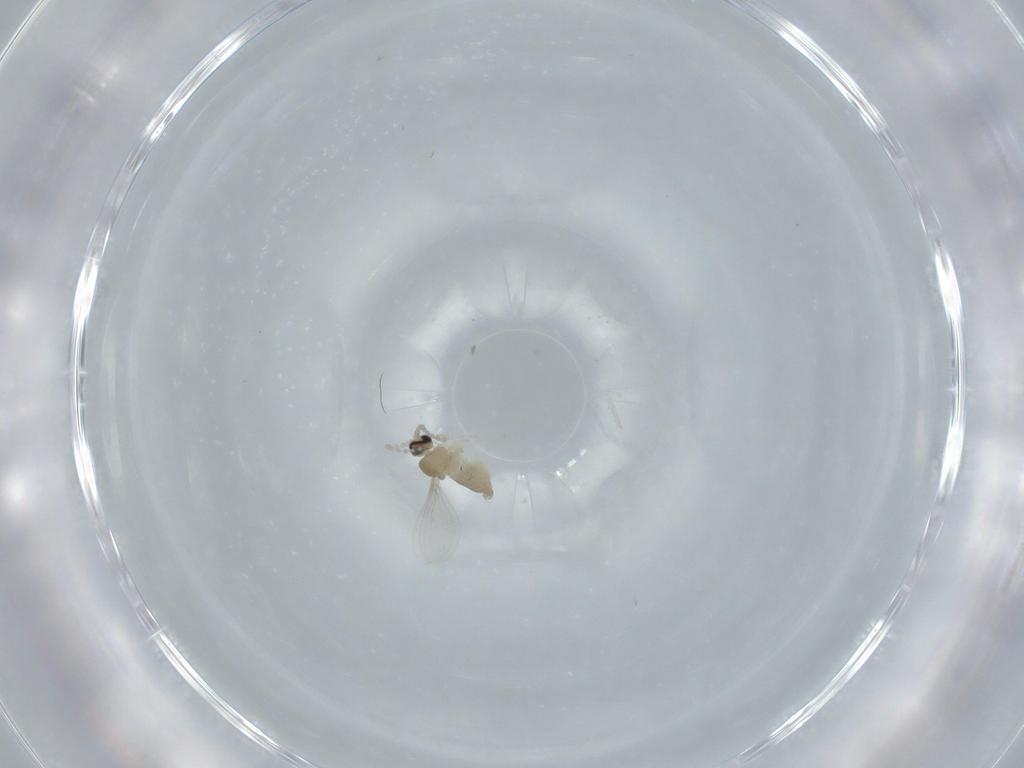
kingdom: Animalia
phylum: Arthropoda
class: Insecta
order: Diptera
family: Cecidomyiidae
